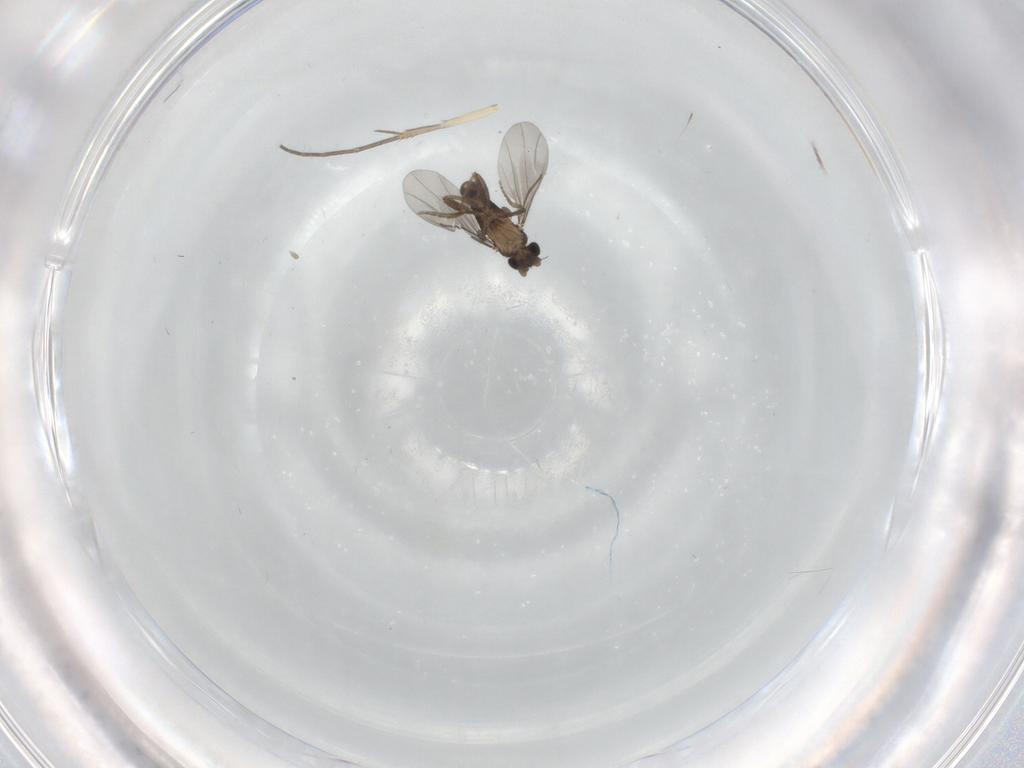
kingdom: Animalia
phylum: Arthropoda
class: Insecta
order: Diptera
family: Mycetophilidae
